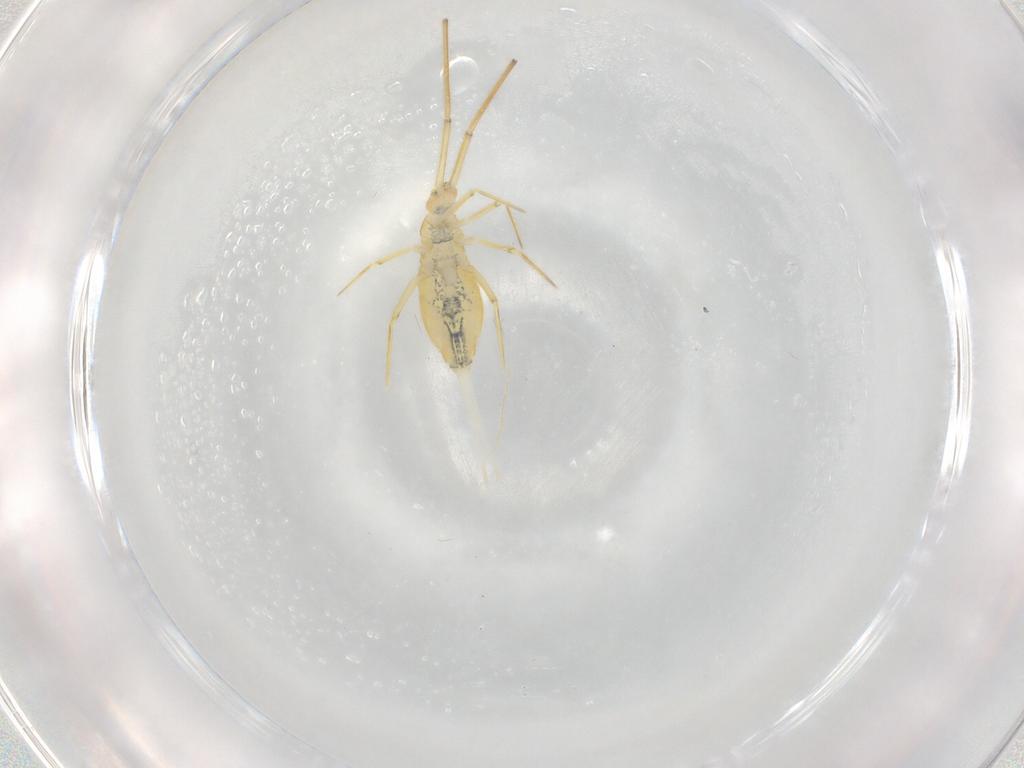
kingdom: Animalia
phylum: Arthropoda
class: Collembola
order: Entomobryomorpha
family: Paronellidae
